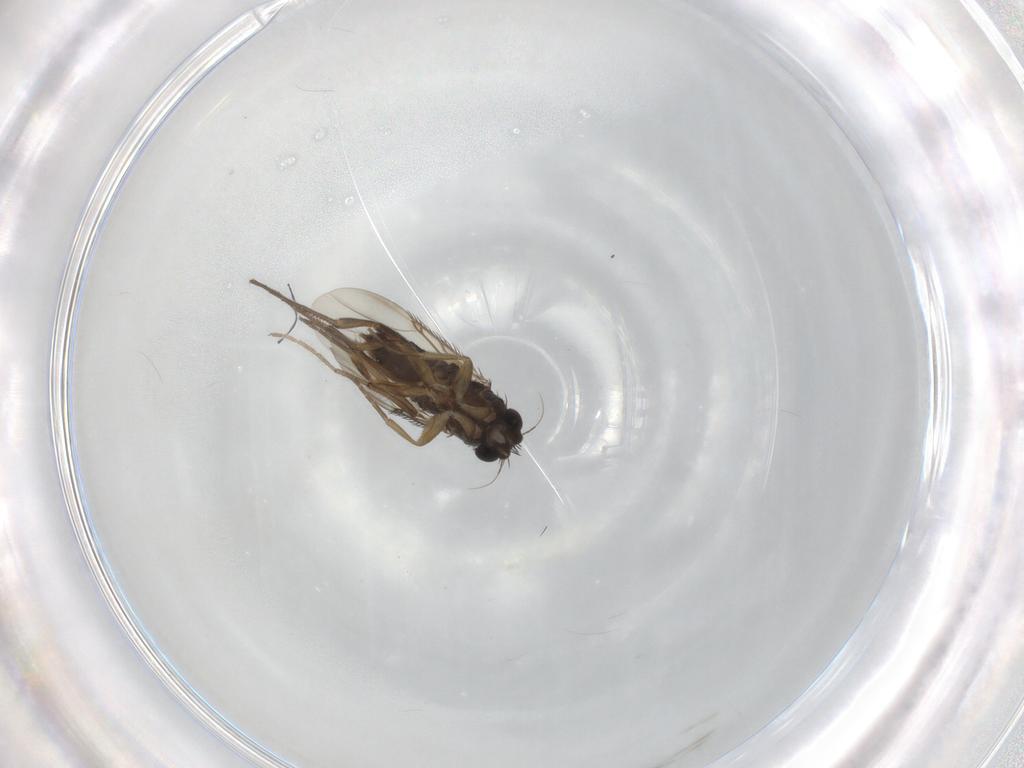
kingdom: Animalia
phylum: Arthropoda
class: Insecta
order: Diptera
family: Phoridae
